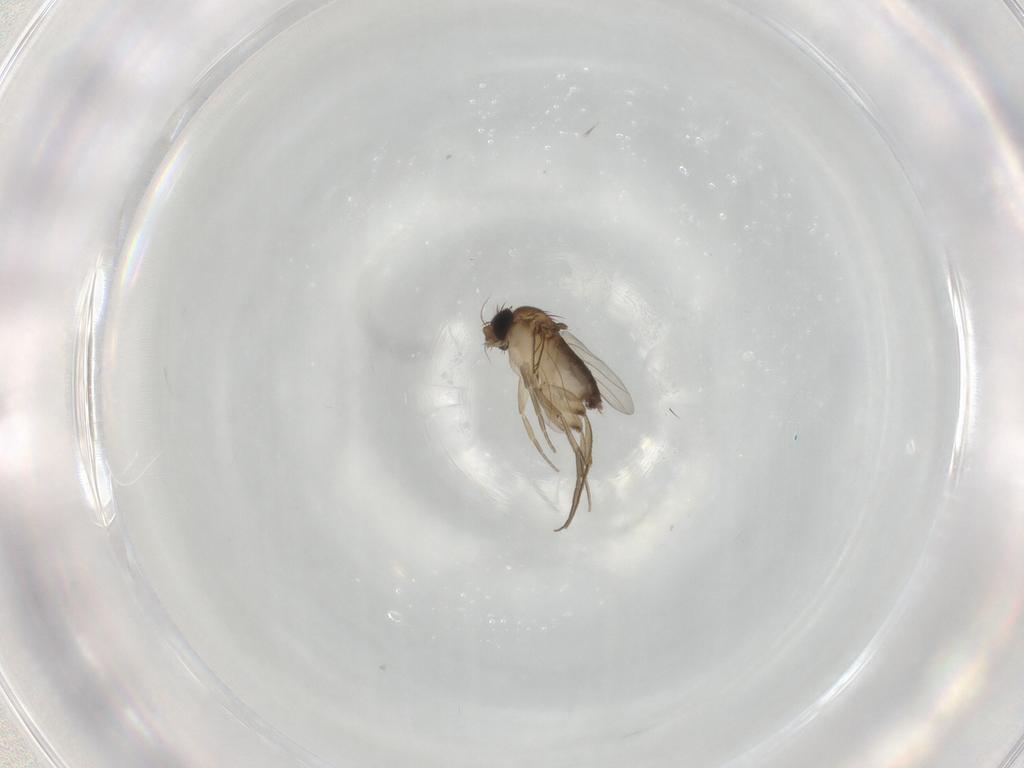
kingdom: Animalia
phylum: Arthropoda
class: Insecta
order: Diptera
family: Phoridae
